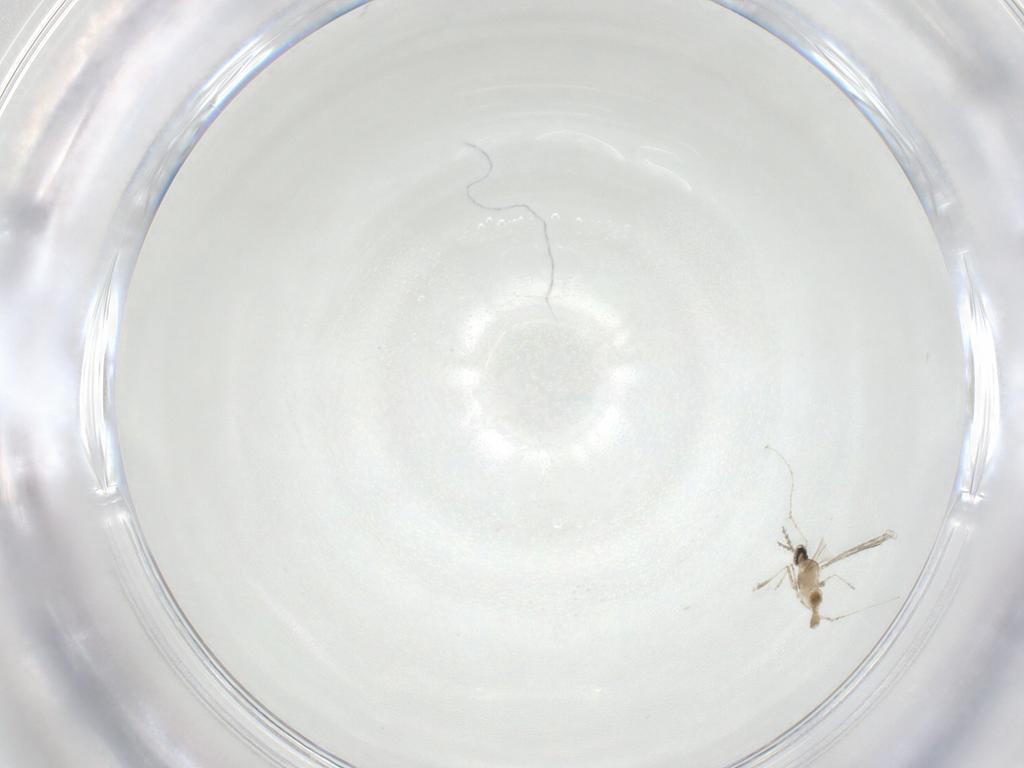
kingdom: Animalia
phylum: Arthropoda
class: Insecta
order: Diptera
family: Cecidomyiidae
